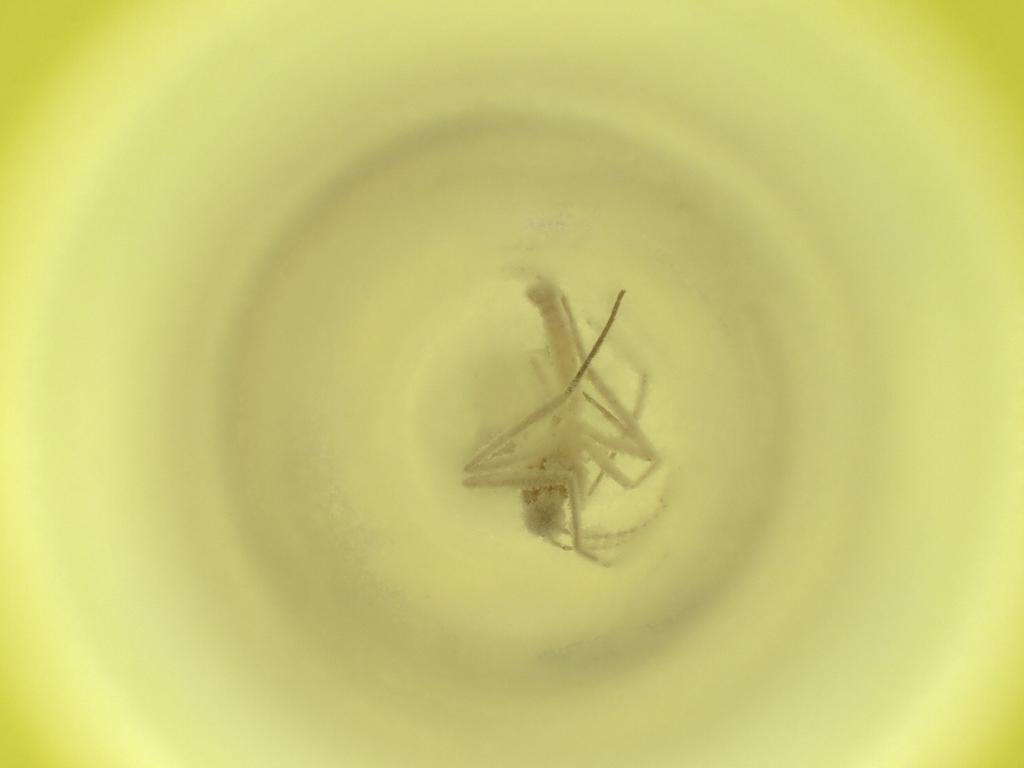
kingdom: Animalia
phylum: Arthropoda
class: Insecta
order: Diptera
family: Cecidomyiidae
